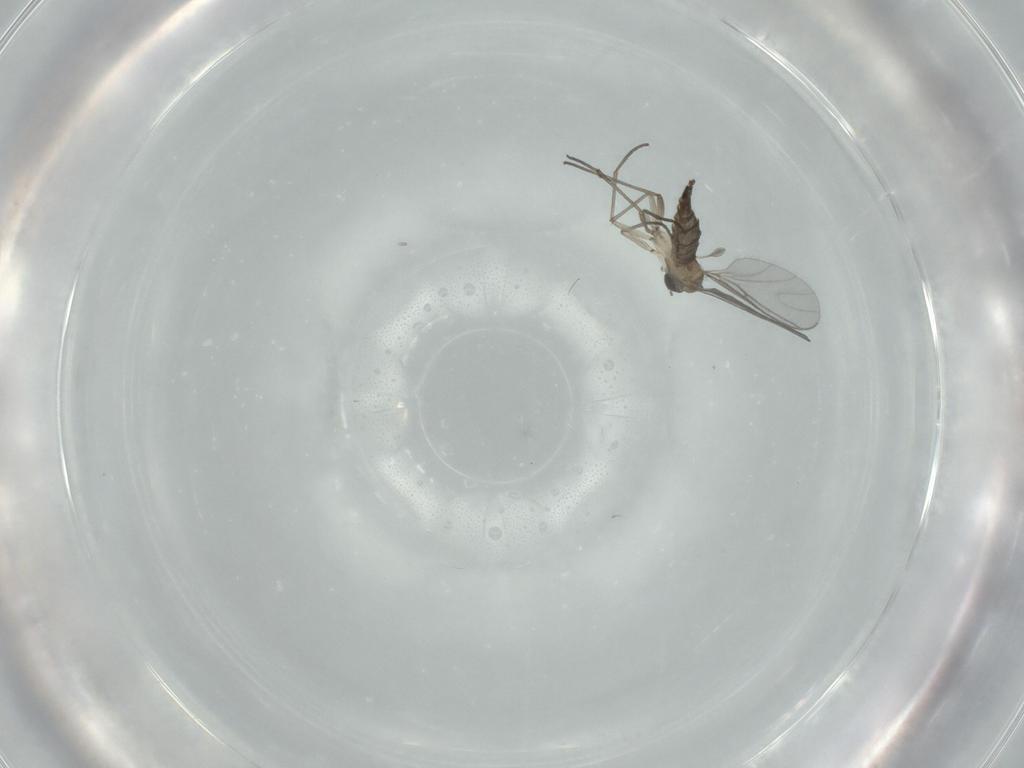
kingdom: Animalia
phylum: Arthropoda
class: Insecta
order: Diptera
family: Sciaridae
